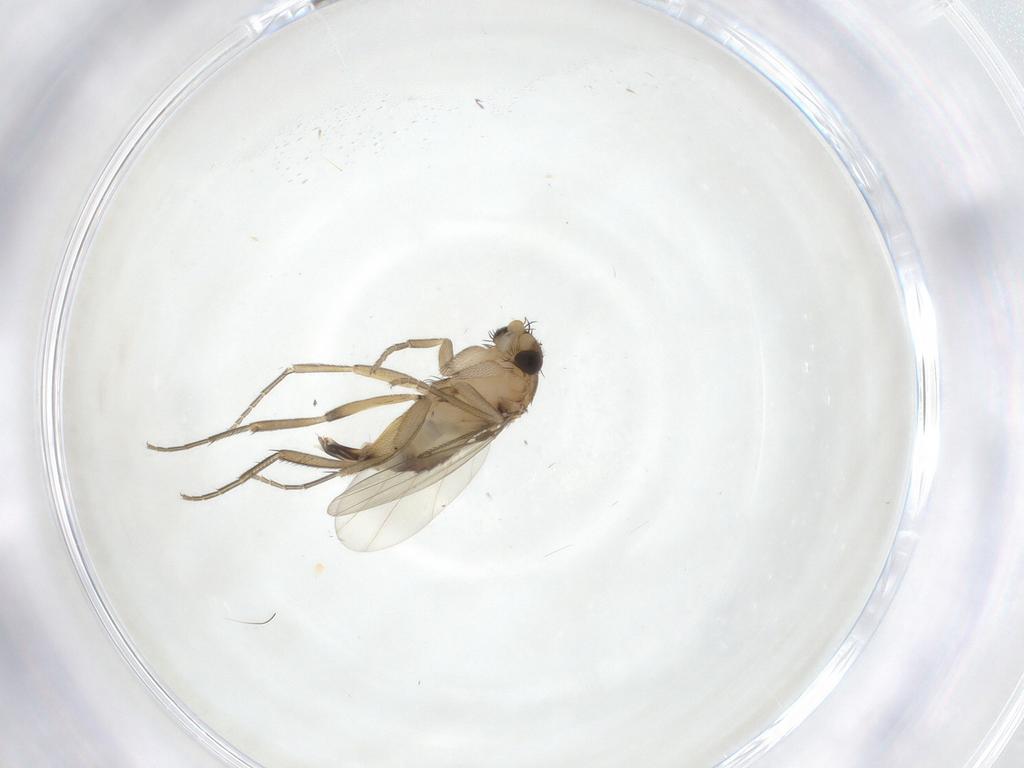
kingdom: Animalia
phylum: Arthropoda
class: Insecta
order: Diptera
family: Phoridae
